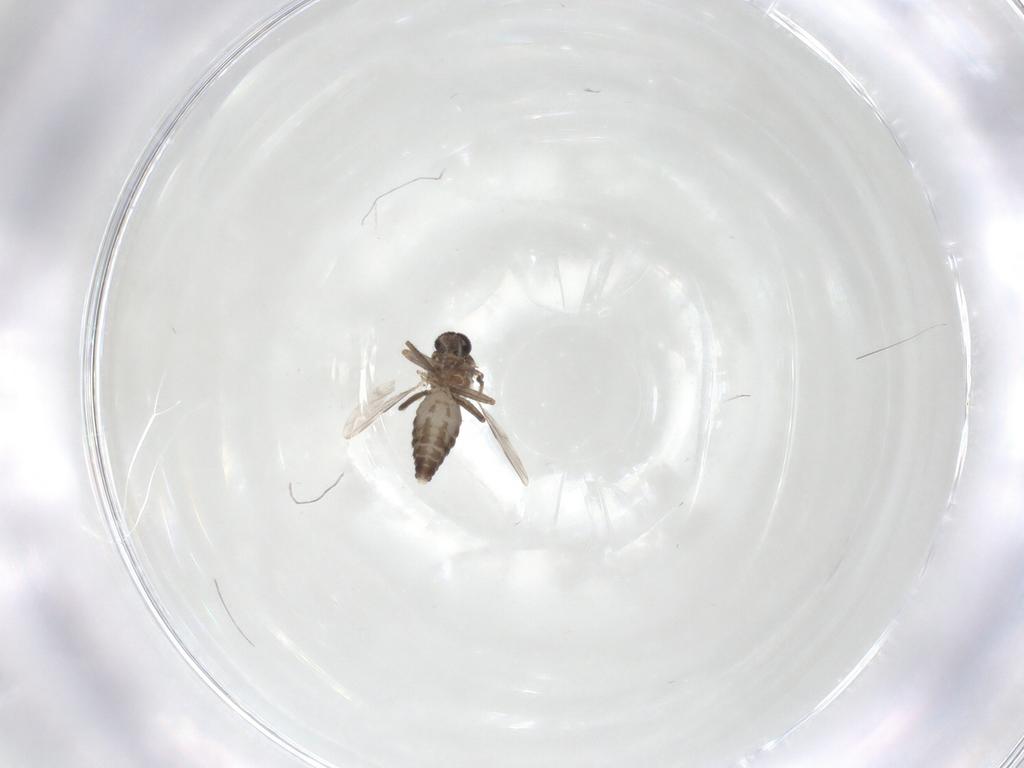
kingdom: Animalia
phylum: Arthropoda
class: Insecta
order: Diptera
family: Ceratopogonidae
